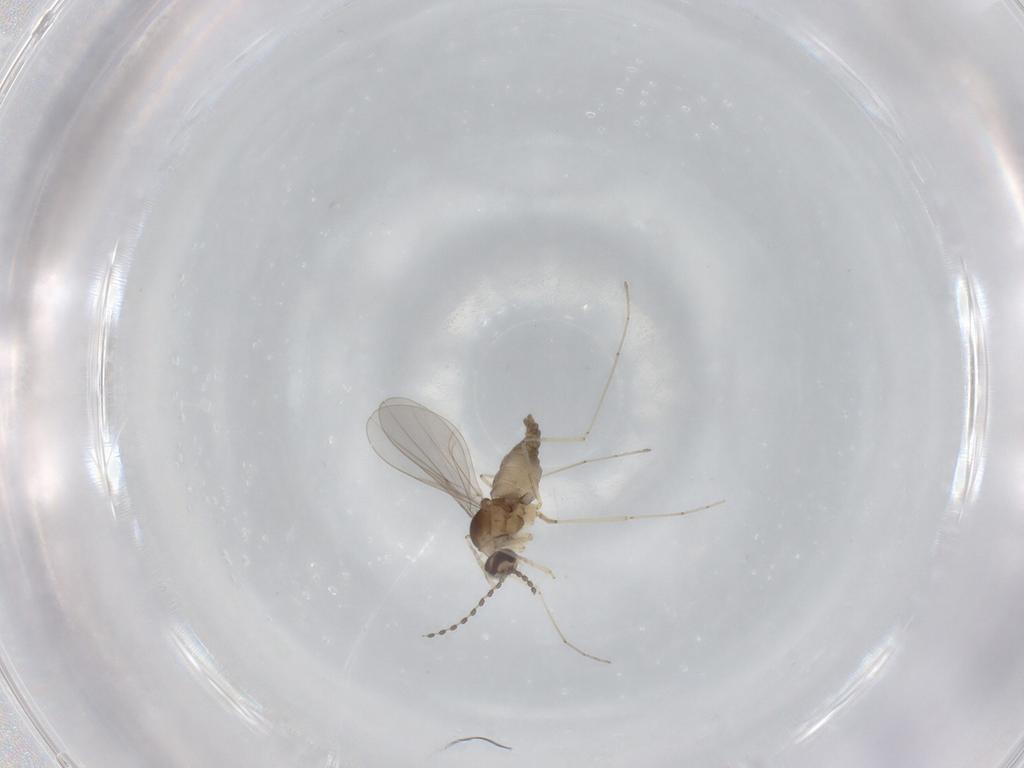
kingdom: Animalia
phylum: Arthropoda
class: Insecta
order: Diptera
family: Cecidomyiidae
